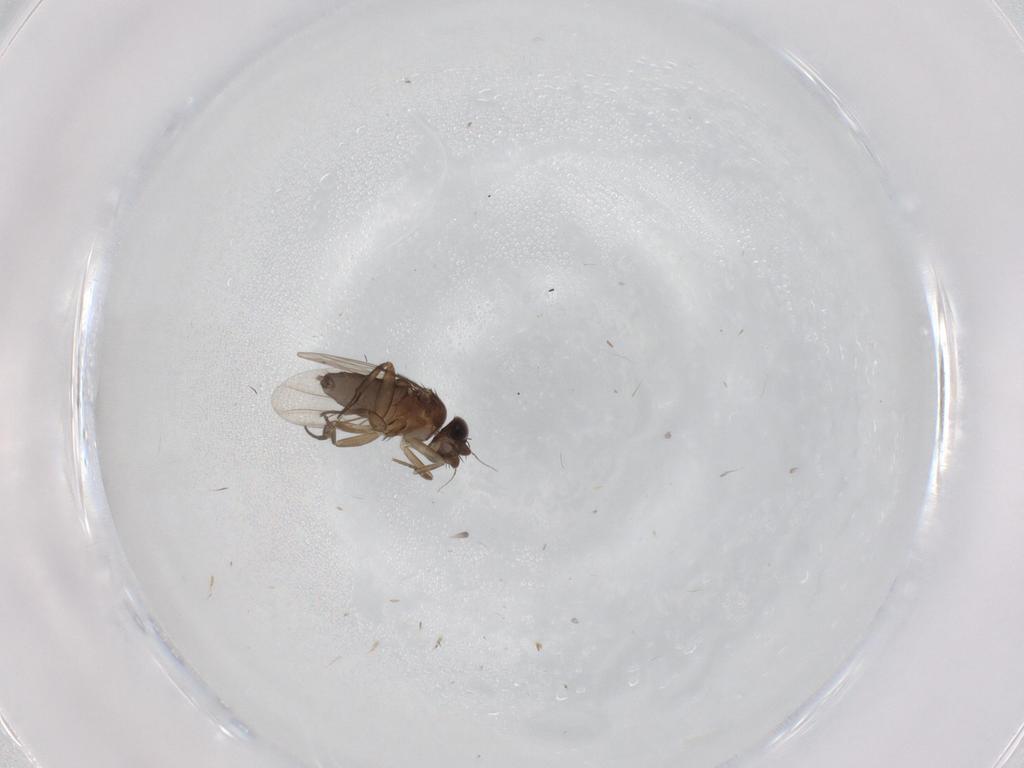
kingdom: Animalia
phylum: Arthropoda
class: Insecta
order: Diptera
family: Phoridae
